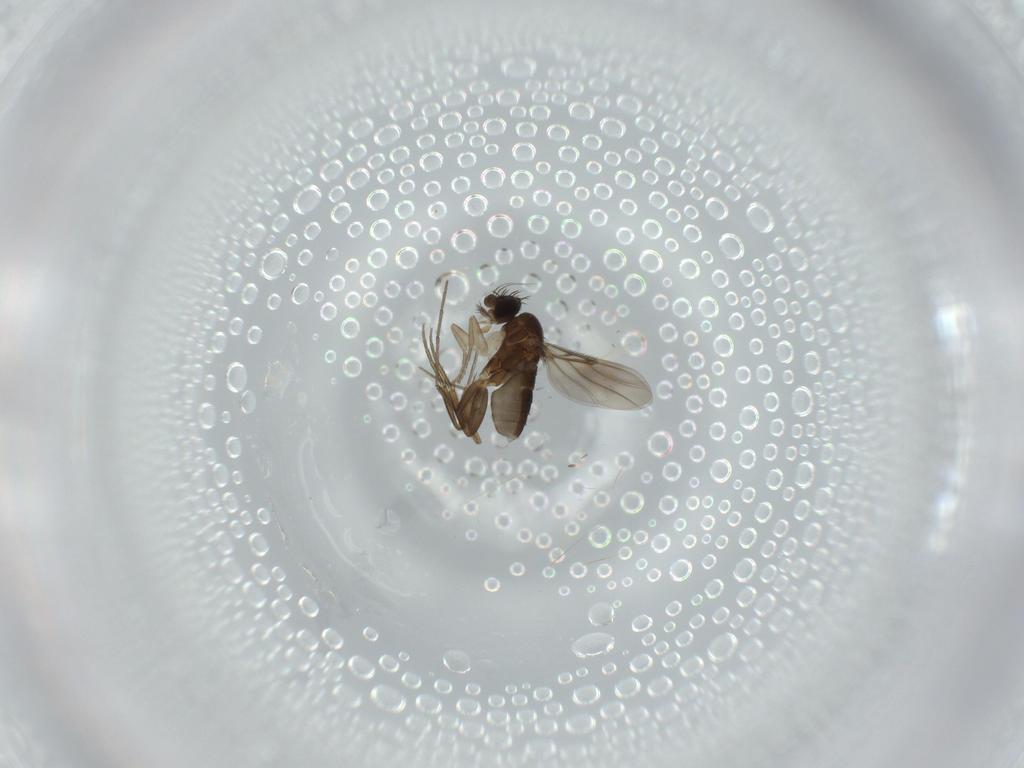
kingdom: Animalia
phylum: Arthropoda
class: Insecta
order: Diptera
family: Phoridae
